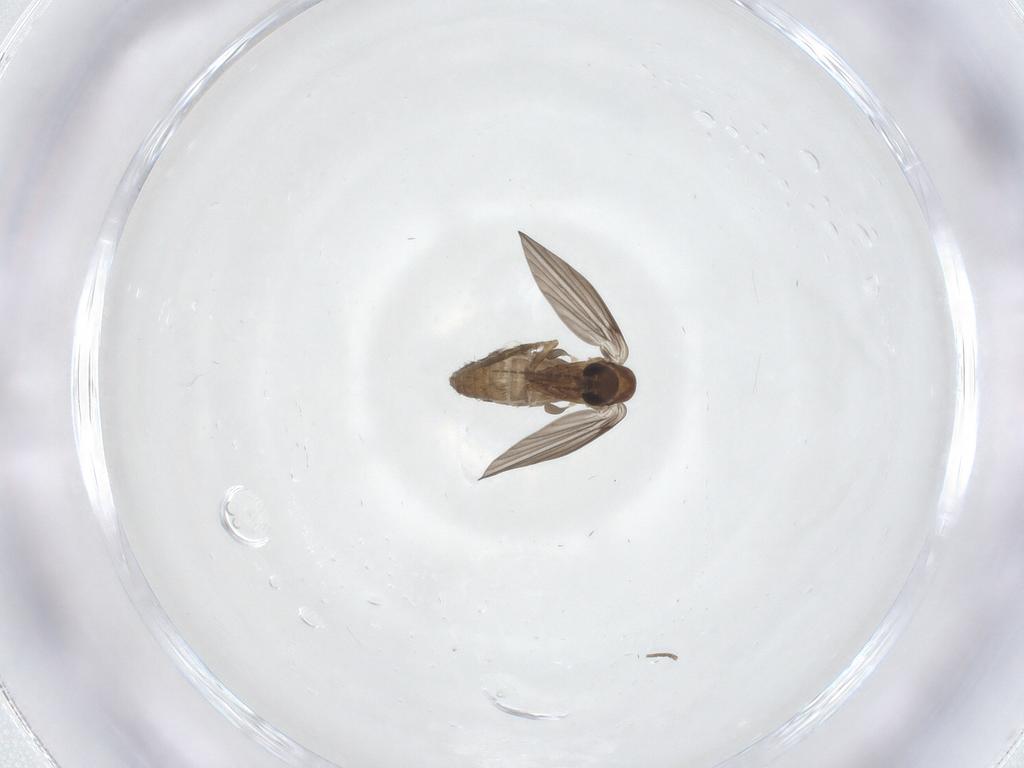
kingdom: Animalia
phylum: Arthropoda
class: Insecta
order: Diptera
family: Psychodidae
